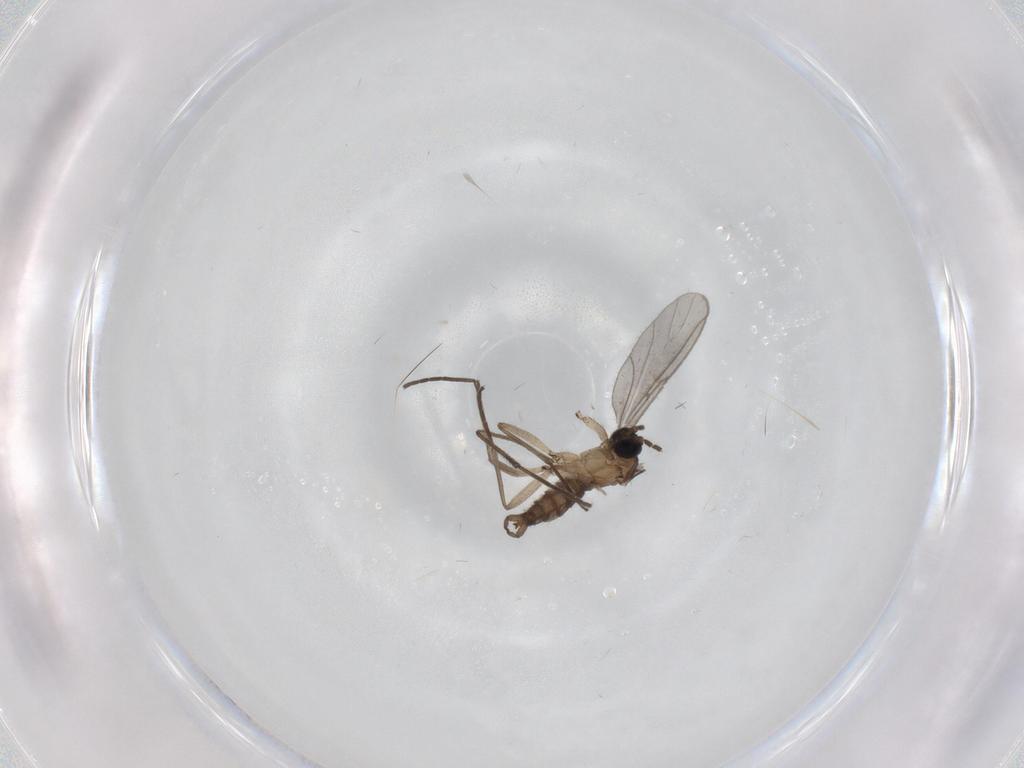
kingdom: Animalia
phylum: Arthropoda
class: Insecta
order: Diptera
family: Sciaridae
